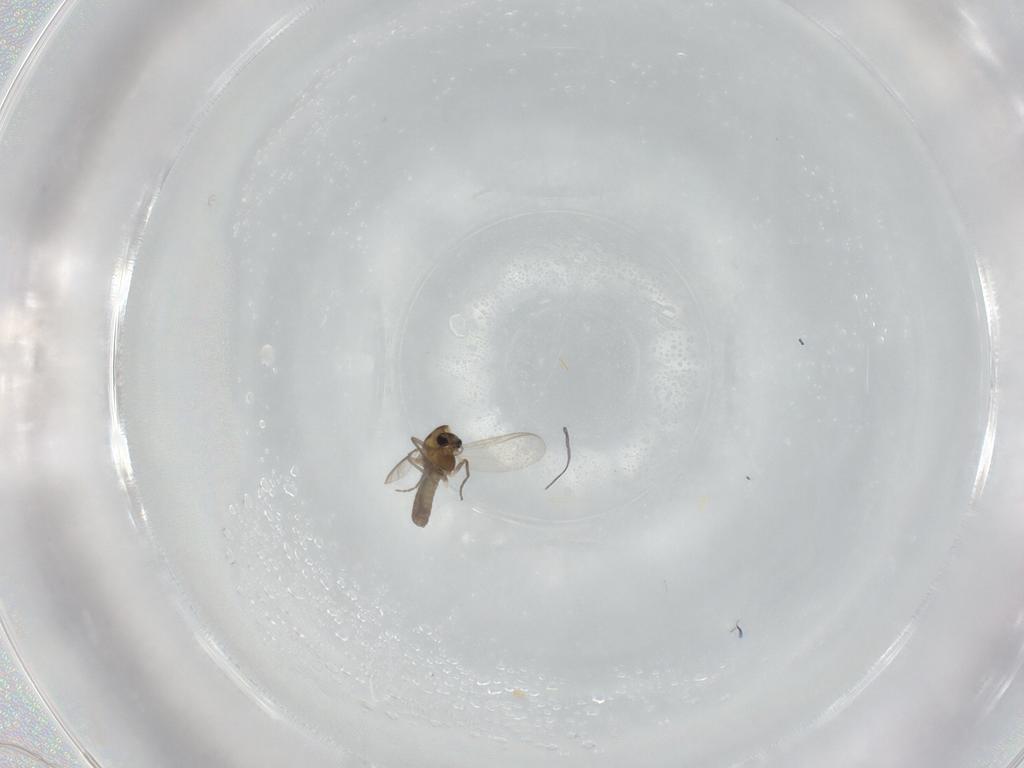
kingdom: Animalia
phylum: Arthropoda
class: Insecta
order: Diptera
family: Chironomidae
